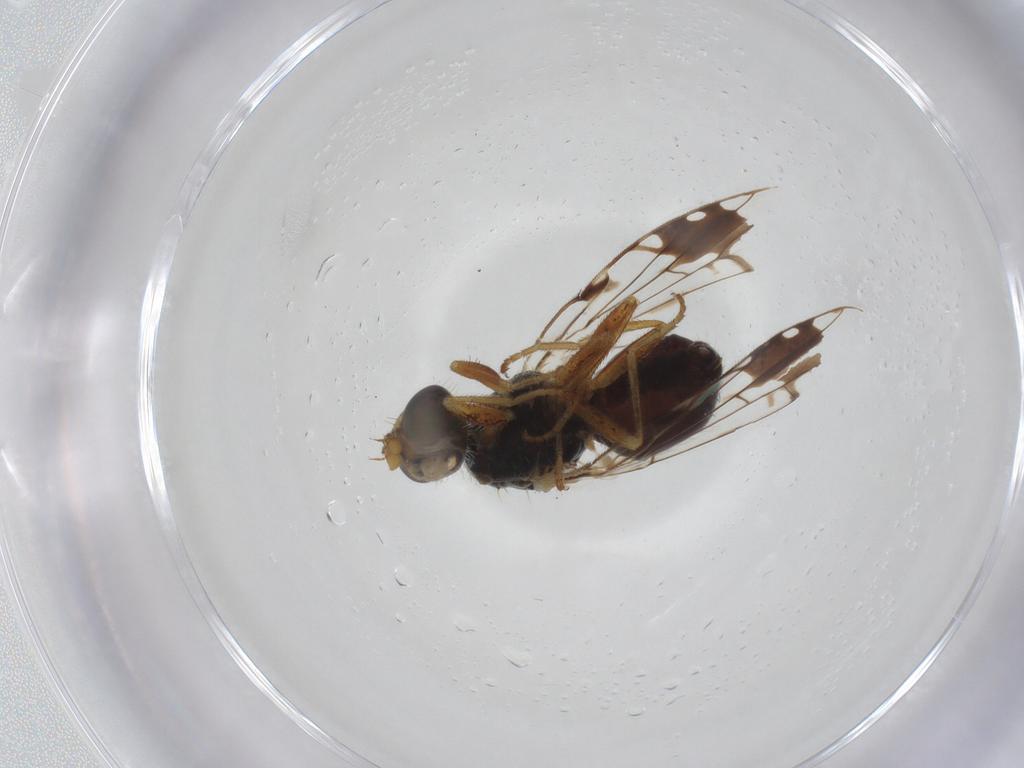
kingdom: Animalia
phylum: Arthropoda
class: Insecta
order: Diptera
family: Tephritidae
